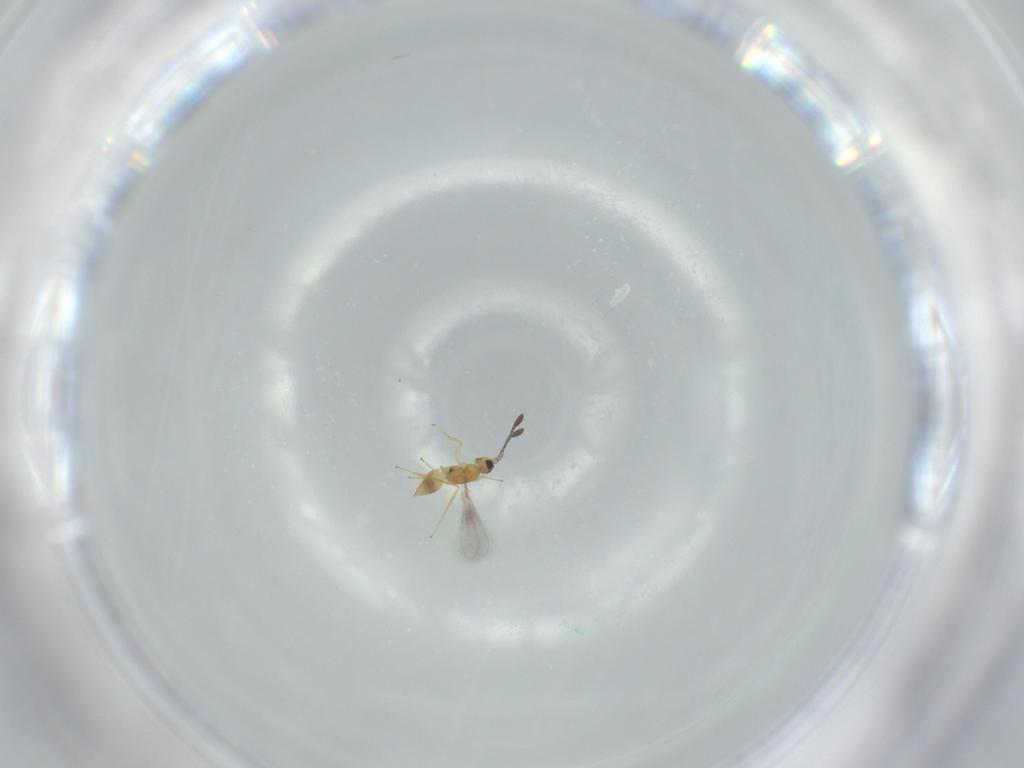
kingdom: Animalia
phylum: Arthropoda
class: Insecta
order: Hymenoptera
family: Mymaridae
